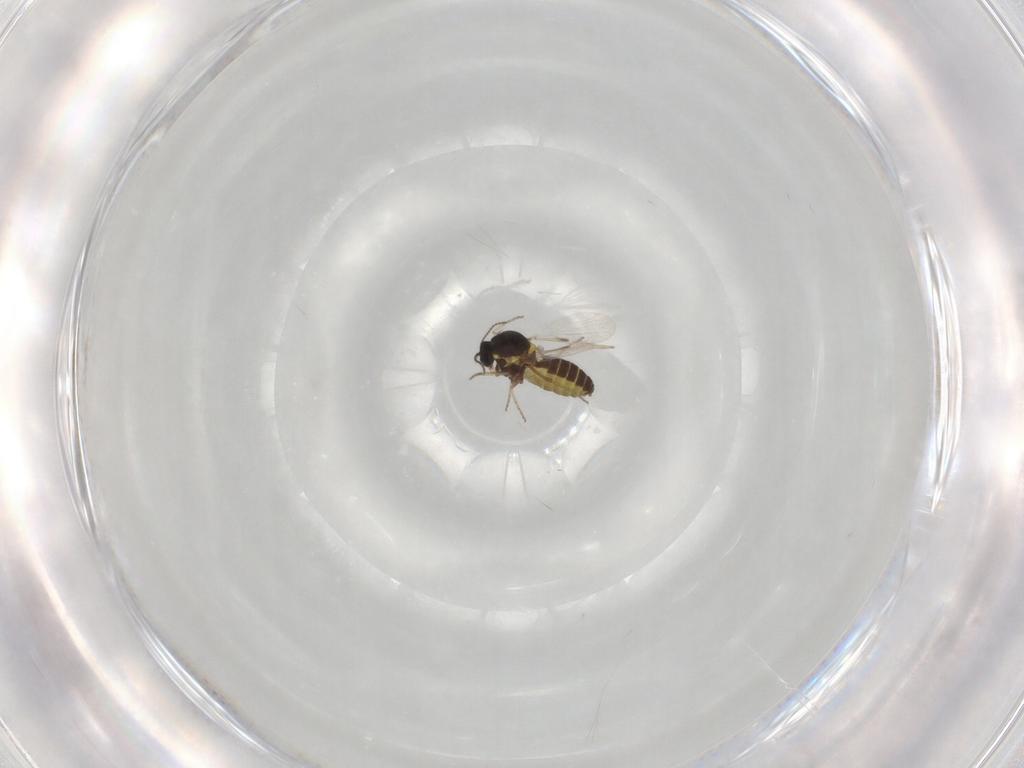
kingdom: Animalia
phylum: Arthropoda
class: Insecta
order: Diptera
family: Ceratopogonidae
